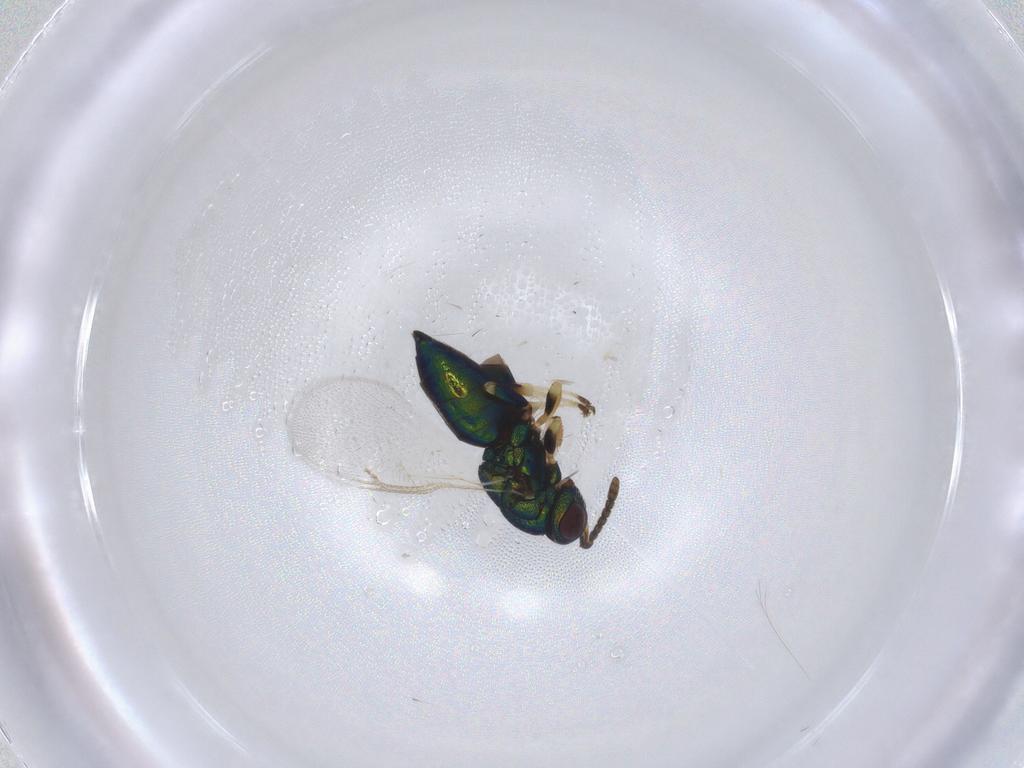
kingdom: Animalia
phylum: Arthropoda
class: Insecta
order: Hymenoptera
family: Pteromalidae
